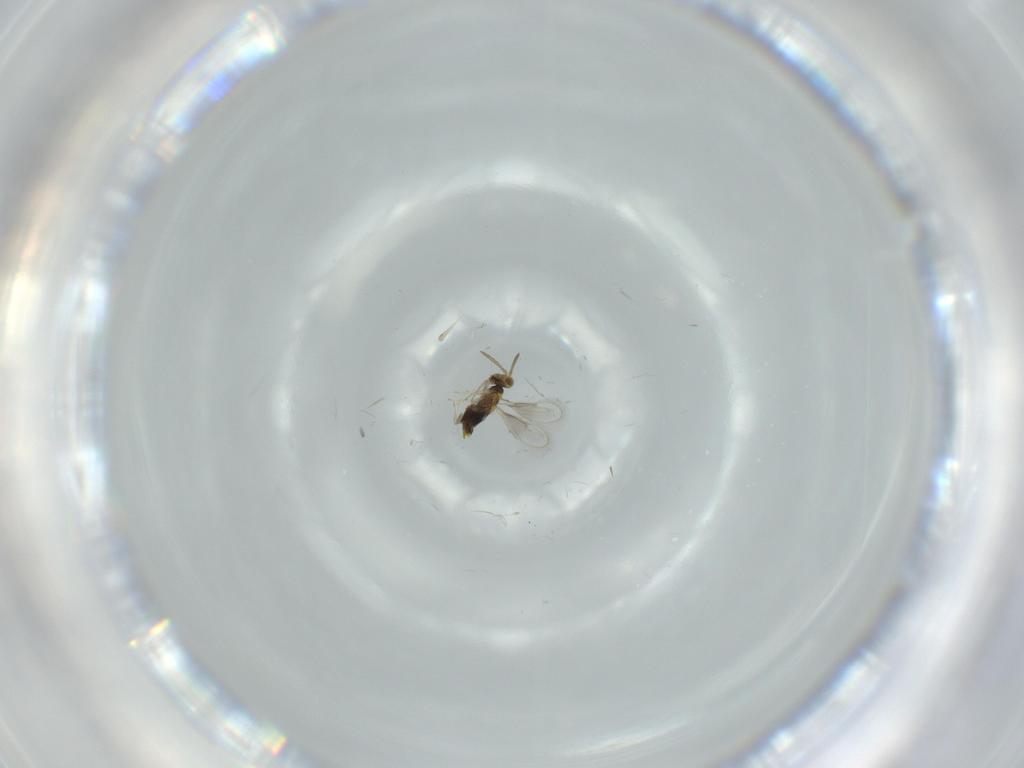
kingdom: Animalia
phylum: Arthropoda
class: Insecta
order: Hymenoptera
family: Aphelinidae
